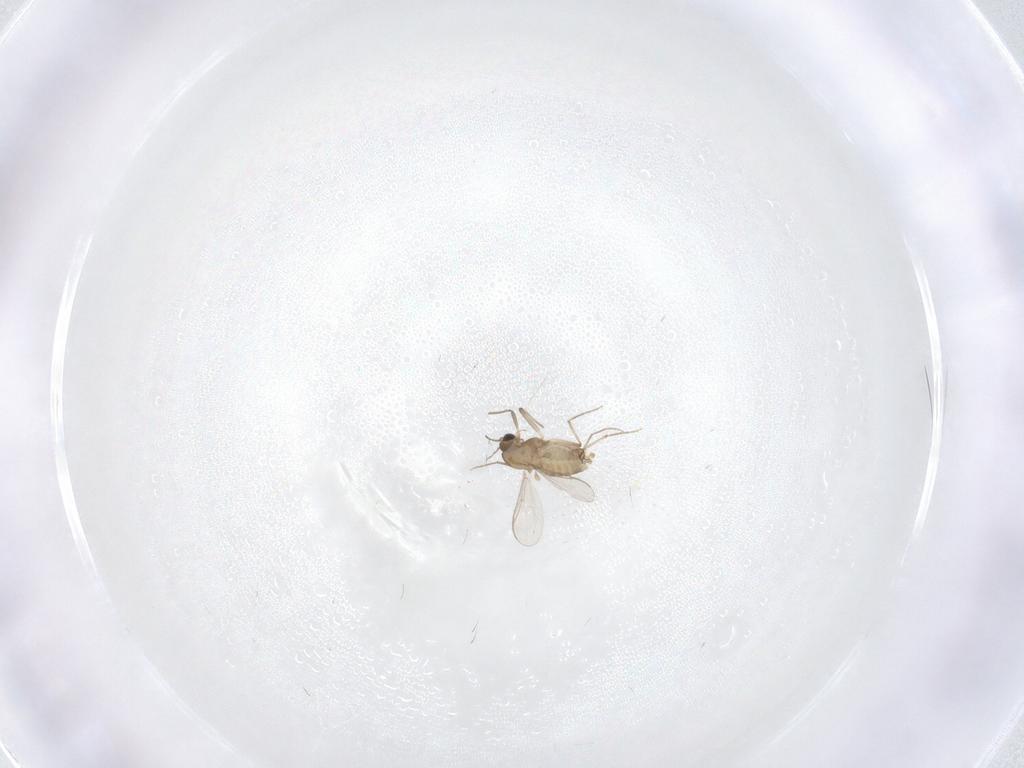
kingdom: Animalia
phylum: Arthropoda
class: Insecta
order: Diptera
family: Chironomidae
